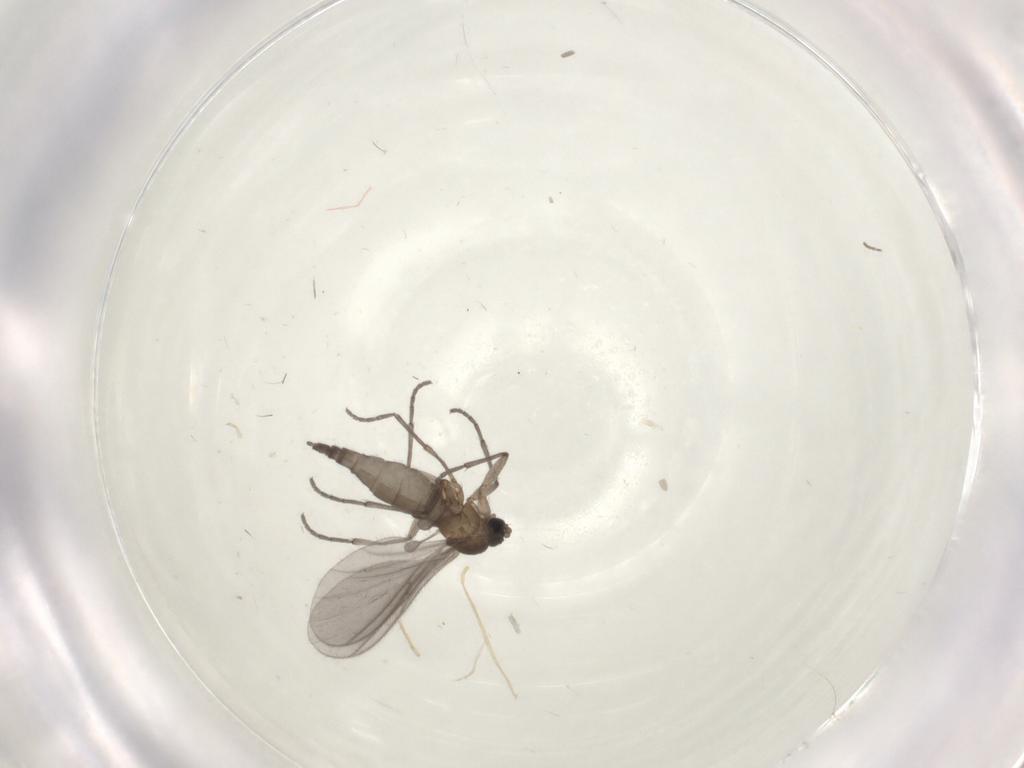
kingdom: Animalia
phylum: Arthropoda
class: Insecta
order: Diptera
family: Sciaridae
